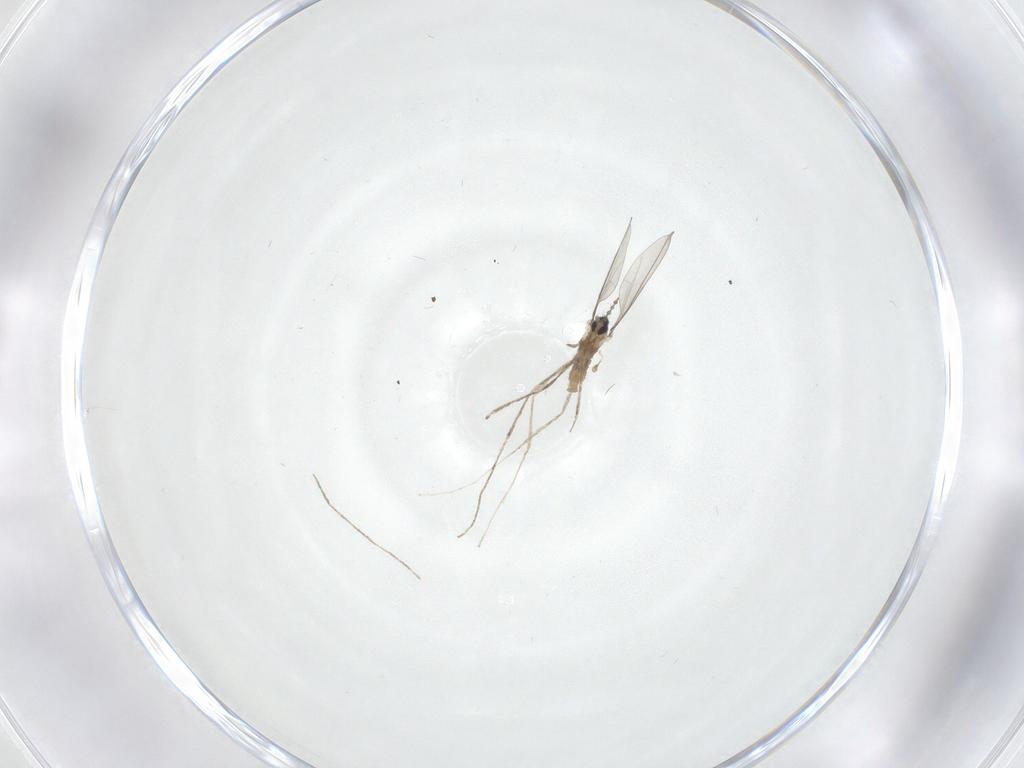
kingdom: Animalia
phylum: Arthropoda
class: Insecta
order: Diptera
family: Cecidomyiidae
